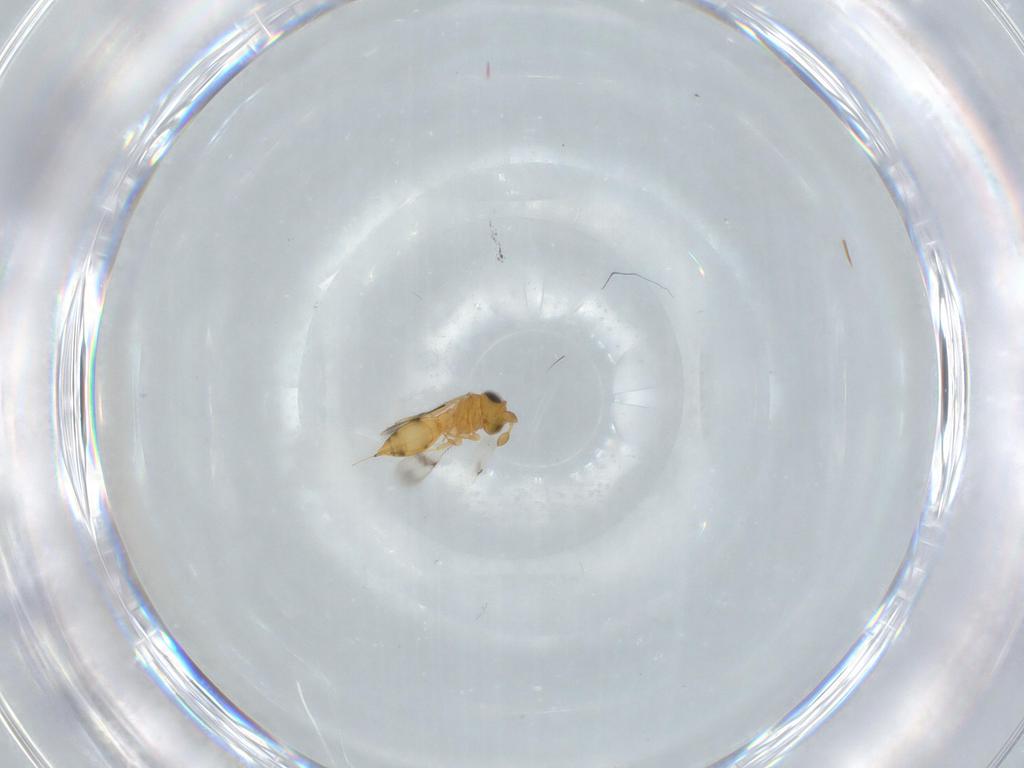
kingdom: Animalia
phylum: Arthropoda
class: Insecta
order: Hymenoptera
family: Scelionidae
